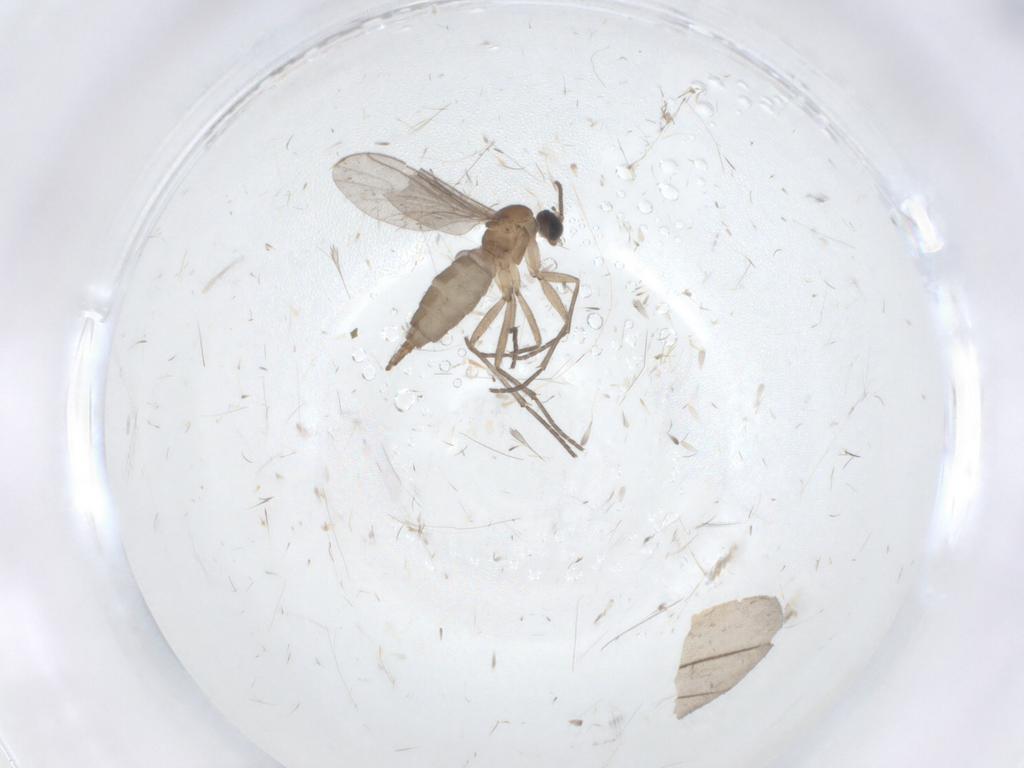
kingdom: Animalia
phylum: Arthropoda
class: Insecta
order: Diptera
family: Sciaridae
